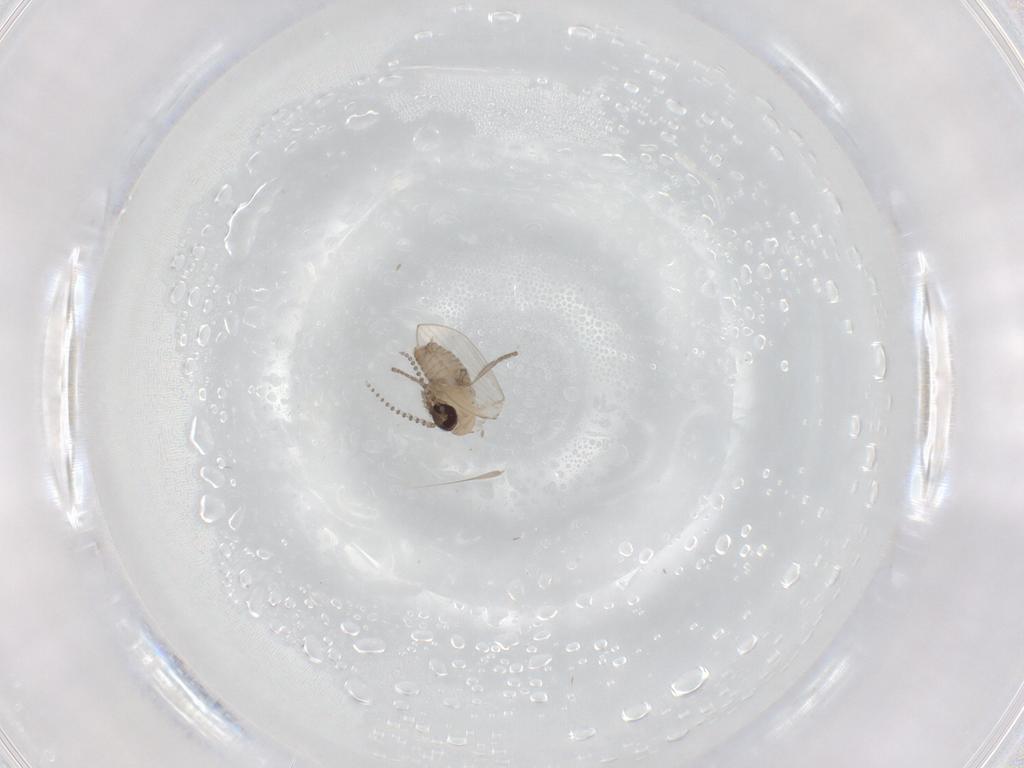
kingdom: Animalia
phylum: Arthropoda
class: Insecta
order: Diptera
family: Psychodidae
